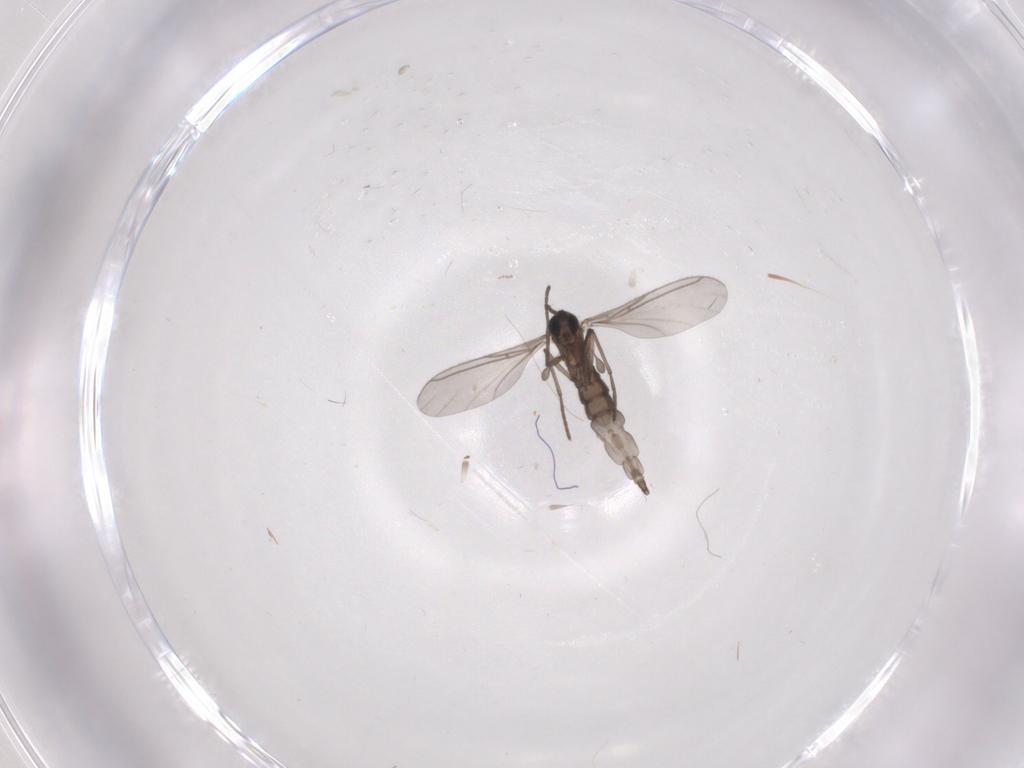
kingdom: Animalia
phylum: Arthropoda
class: Insecta
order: Diptera
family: Sciaridae
